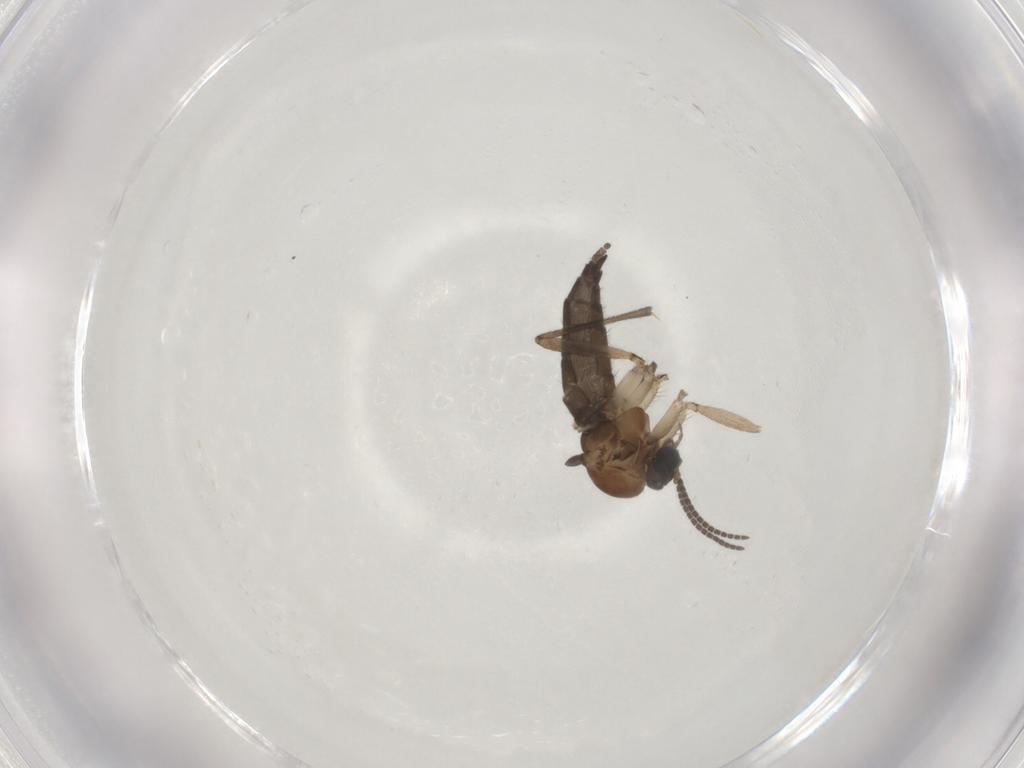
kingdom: Animalia
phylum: Arthropoda
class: Insecta
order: Diptera
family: Sciaridae
